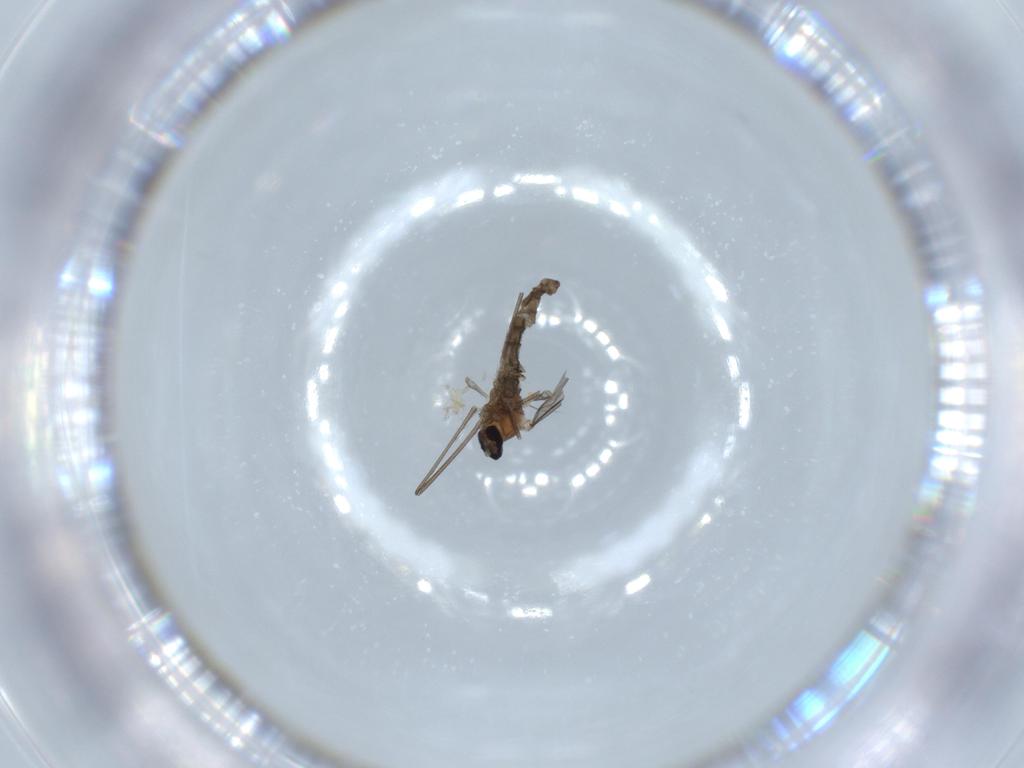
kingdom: Animalia
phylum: Arthropoda
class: Insecta
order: Diptera
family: Cecidomyiidae
